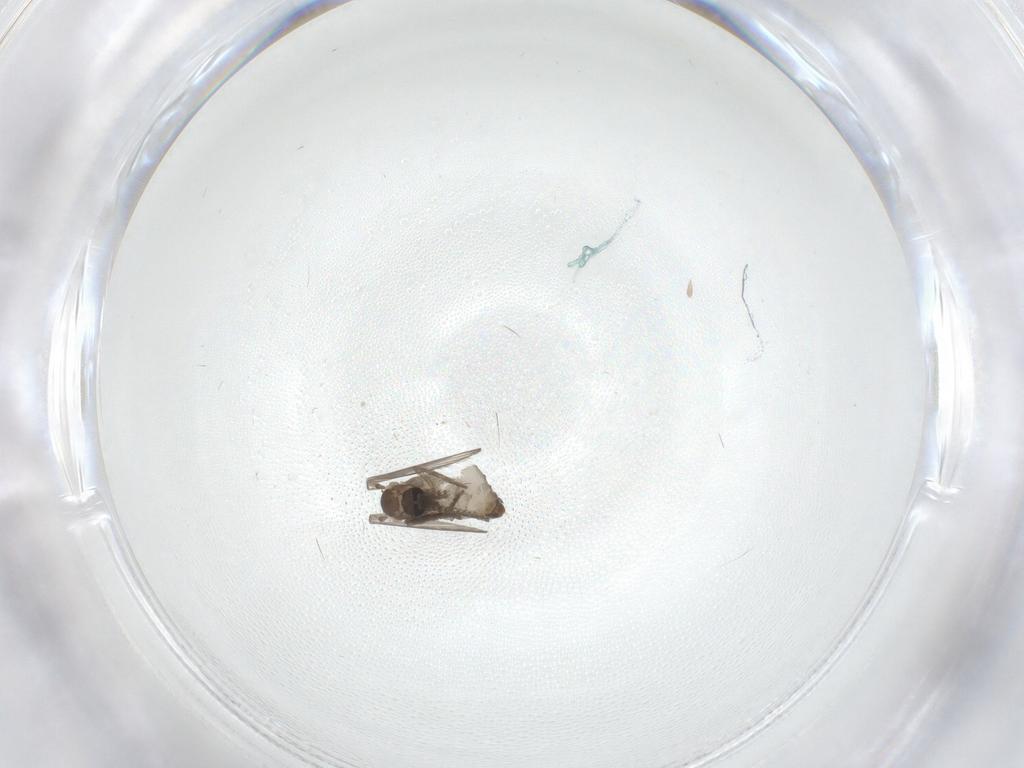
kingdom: Animalia
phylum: Arthropoda
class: Insecta
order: Diptera
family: Psychodidae
